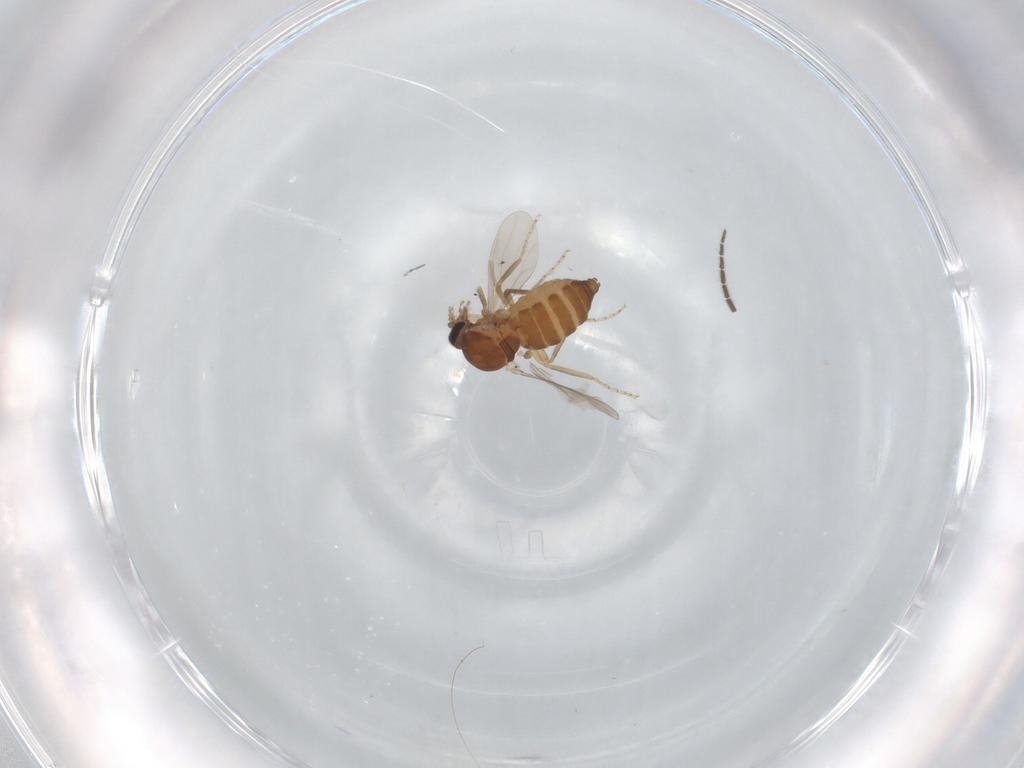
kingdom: Animalia
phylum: Arthropoda
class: Insecta
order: Diptera
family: Ceratopogonidae
